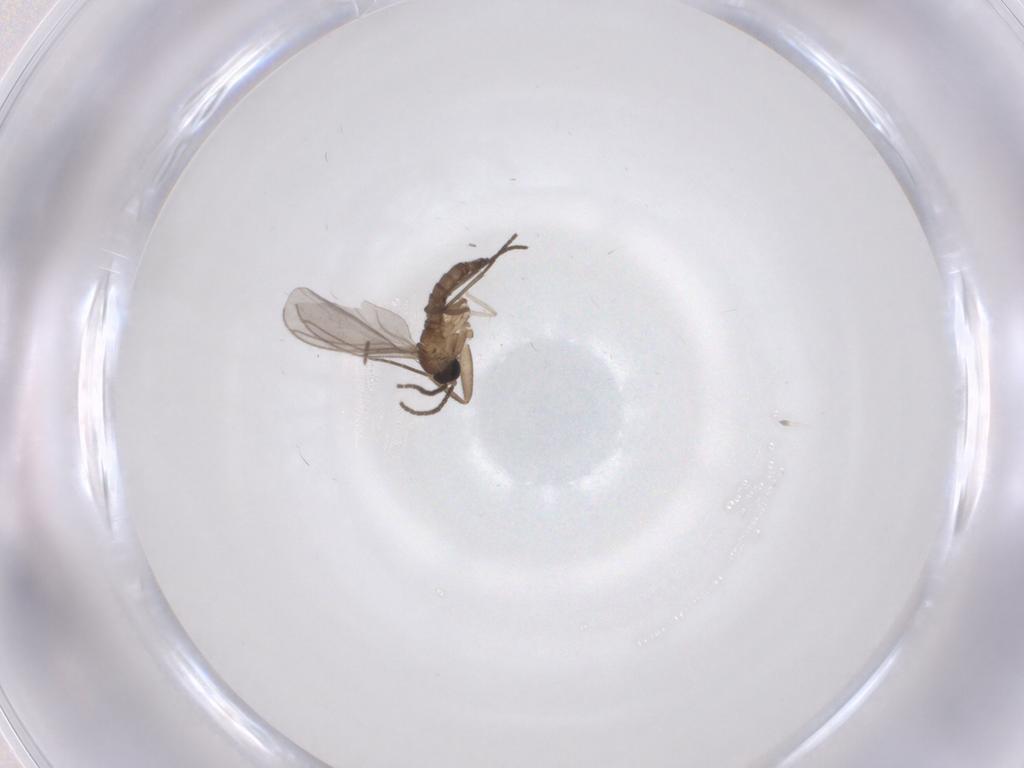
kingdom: Animalia
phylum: Arthropoda
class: Insecta
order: Diptera
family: Phoridae
